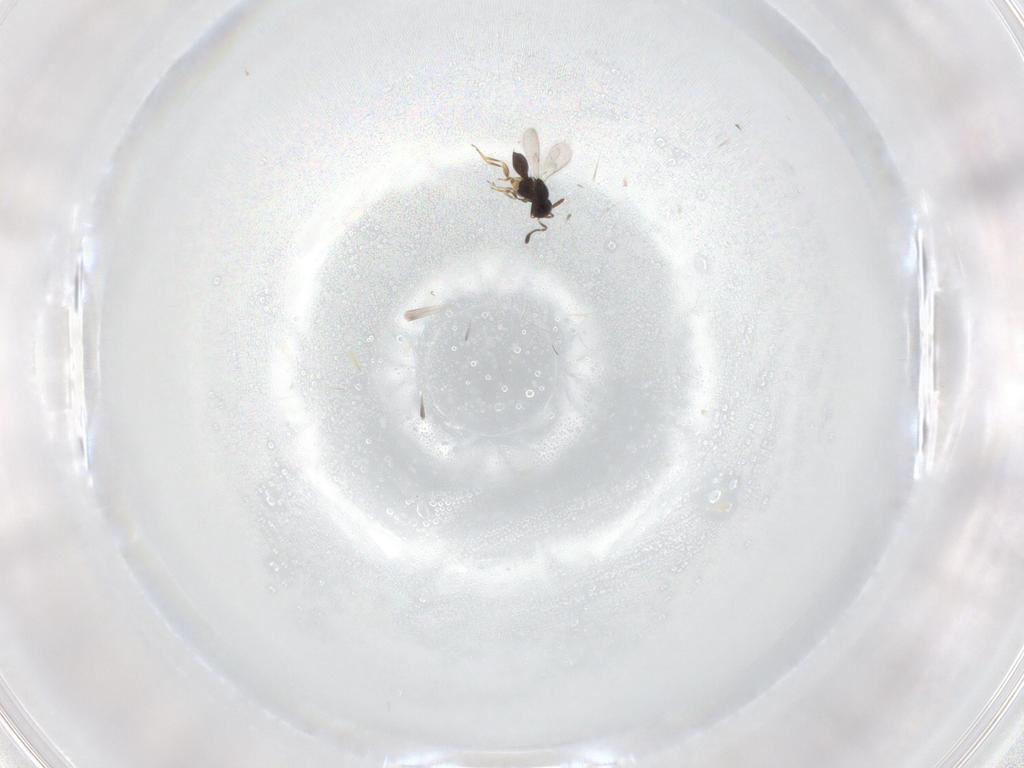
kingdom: Animalia
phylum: Arthropoda
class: Insecta
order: Hymenoptera
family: Scelionidae
